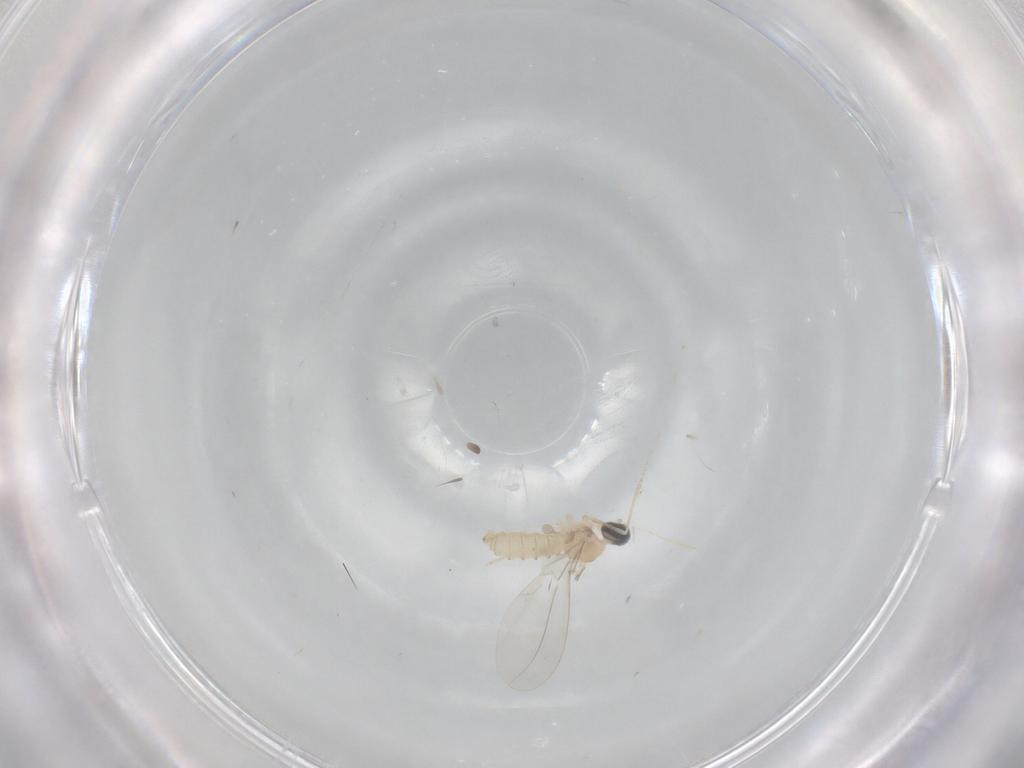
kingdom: Animalia
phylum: Arthropoda
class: Insecta
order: Diptera
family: Cecidomyiidae
